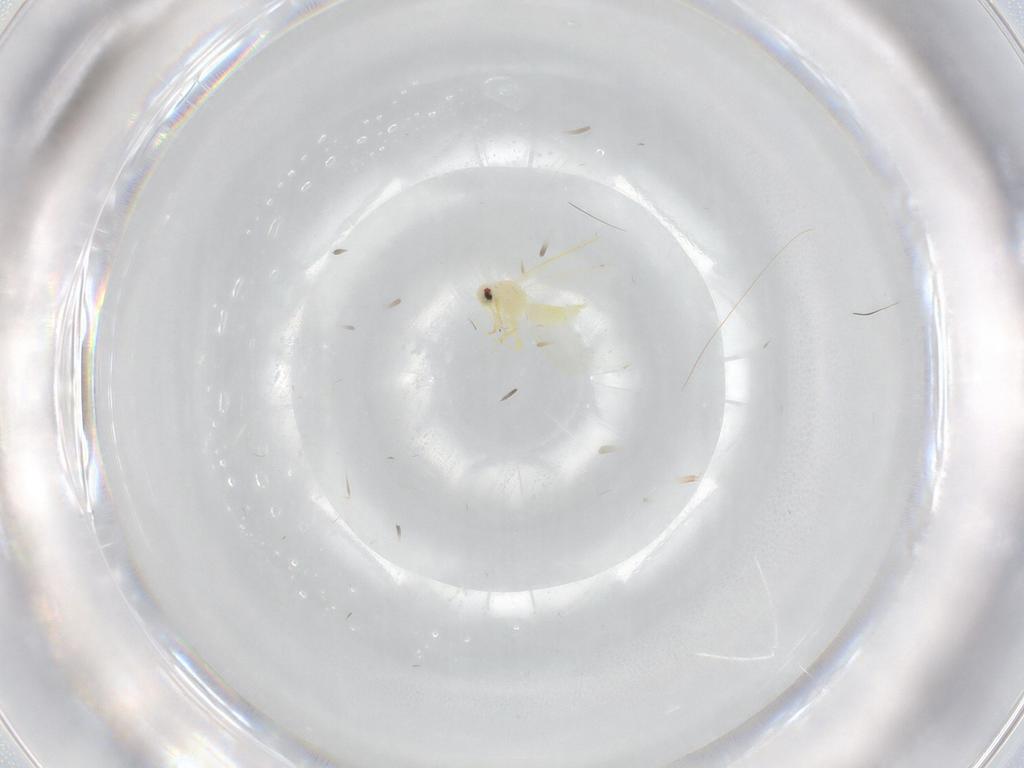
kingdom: Animalia
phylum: Arthropoda
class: Insecta
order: Hemiptera
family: Aleyrodidae
